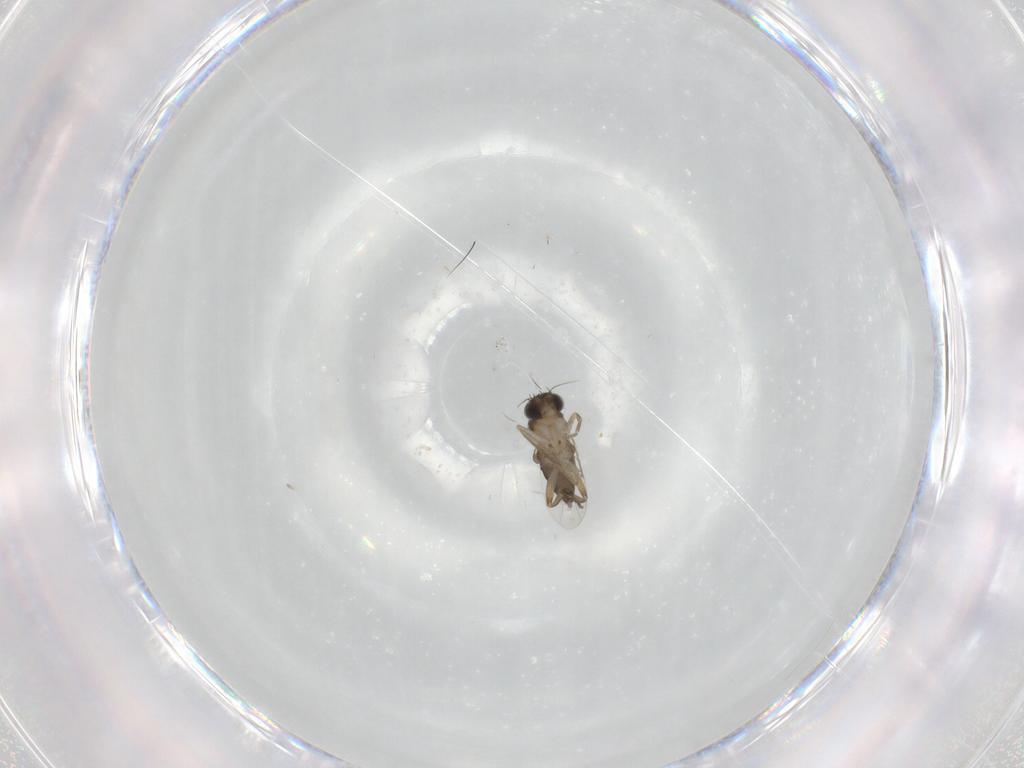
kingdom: Animalia
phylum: Arthropoda
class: Insecta
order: Diptera
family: Phoridae
